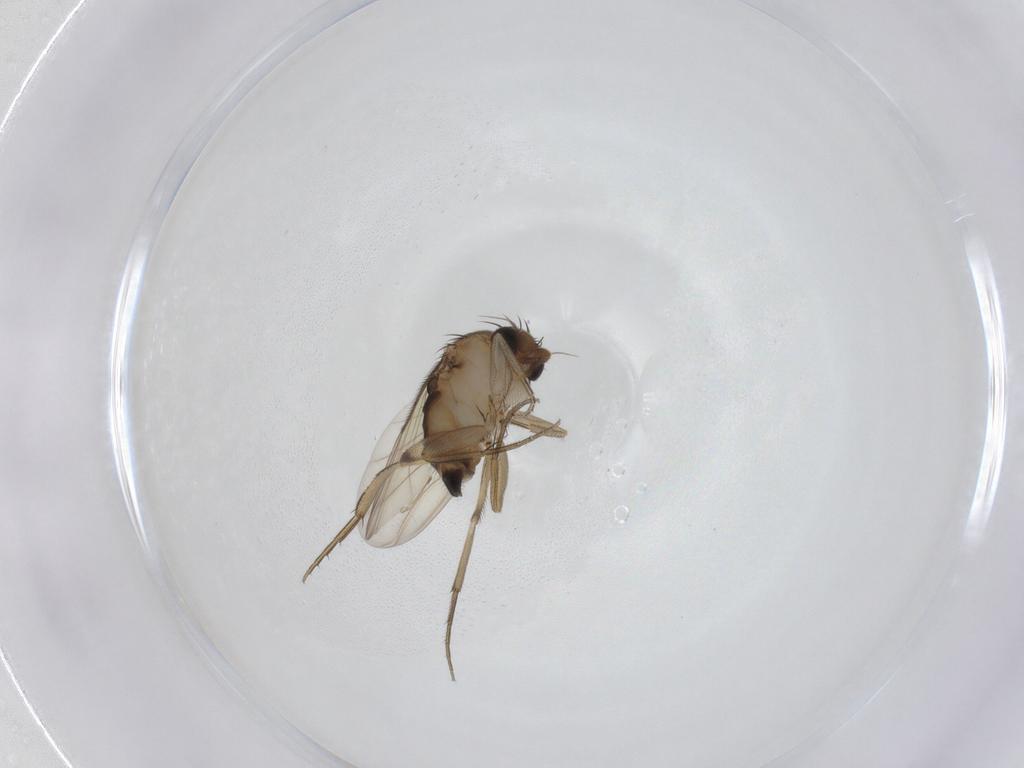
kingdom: Animalia
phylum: Arthropoda
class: Insecta
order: Diptera
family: Phoridae
